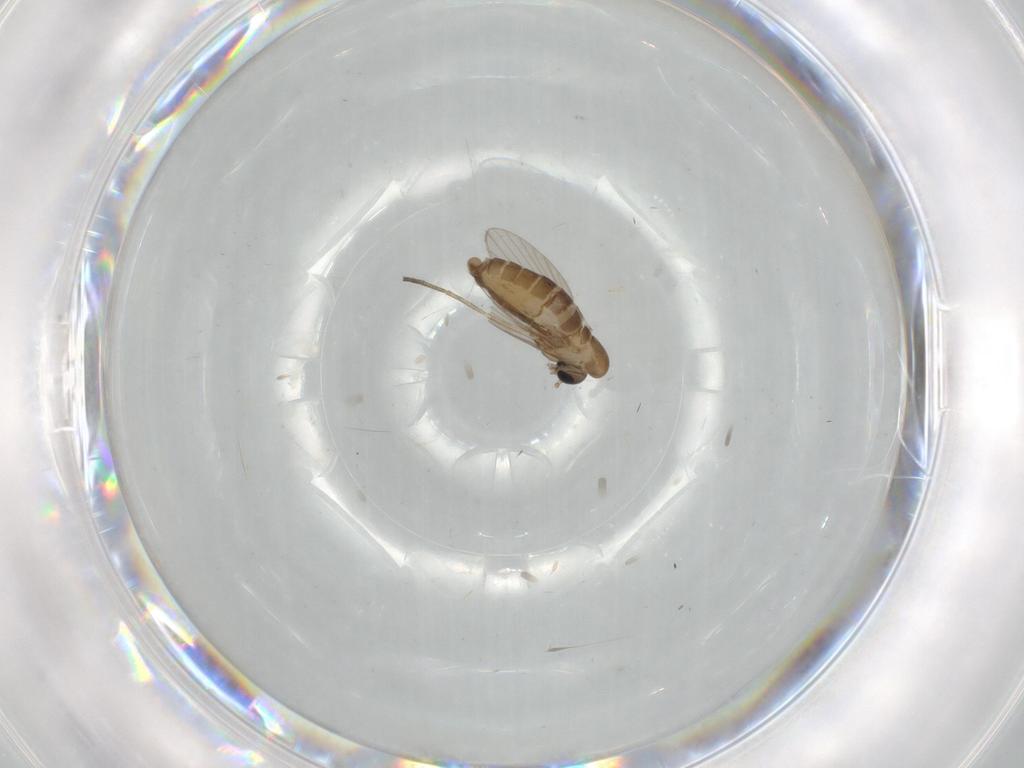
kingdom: Animalia
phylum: Arthropoda
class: Insecta
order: Diptera
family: Psychodidae
